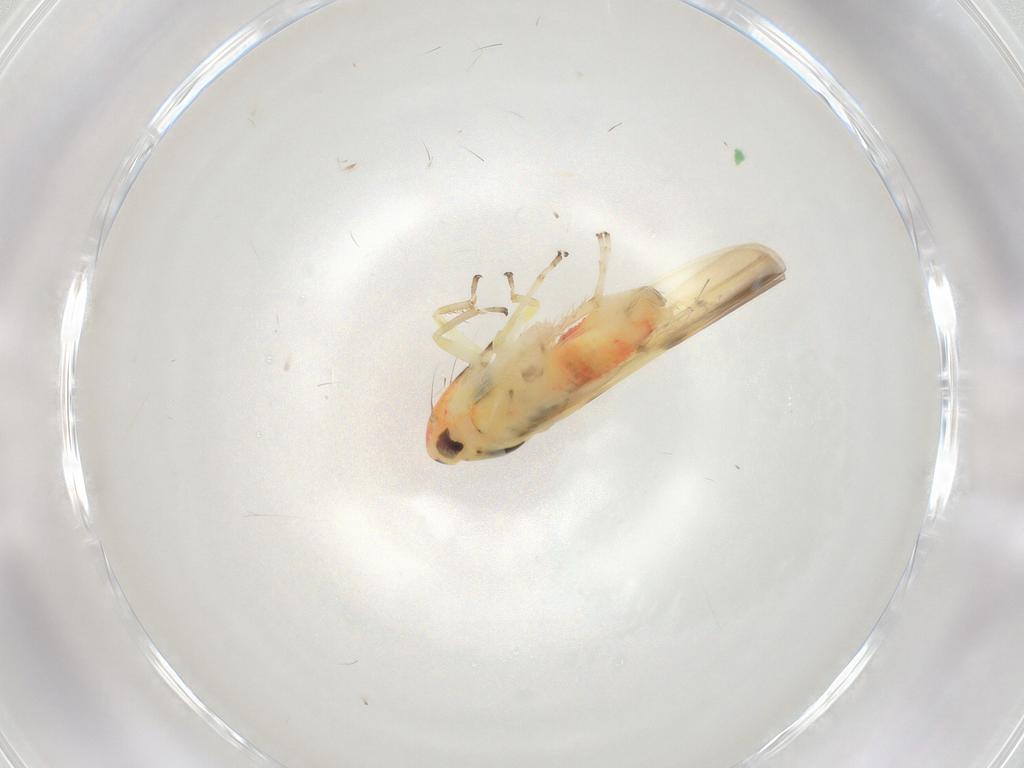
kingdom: Animalia
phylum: Arthropoda
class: Insecta
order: Hemiptera
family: Cicadellidae
